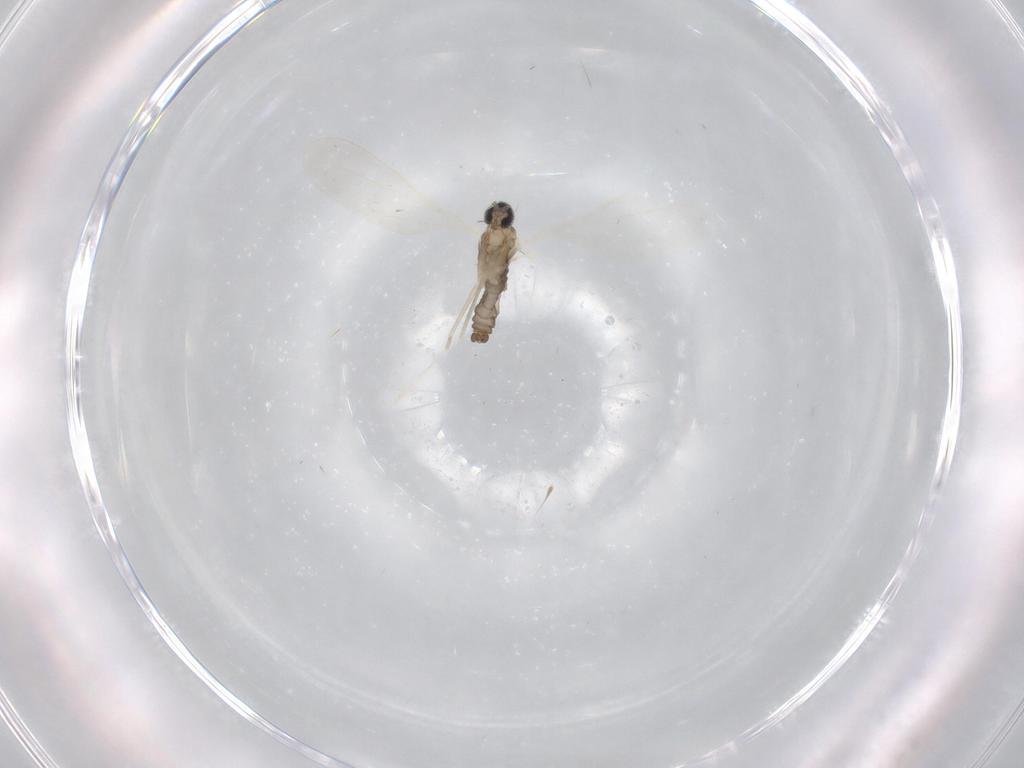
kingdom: Animalia
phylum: Arthropoda
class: Insecta
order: Diptera
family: Cecidomyiidae
